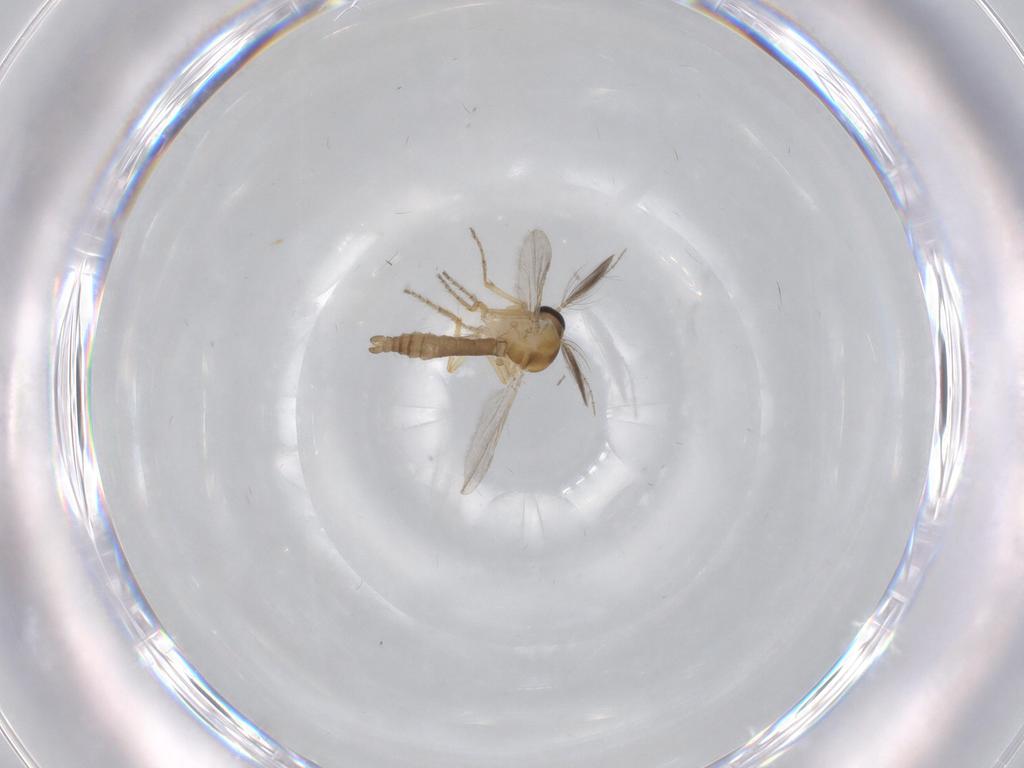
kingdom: Animalia
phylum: Arthropoda
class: Insecta
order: Diptera
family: Ceratopogonidae
